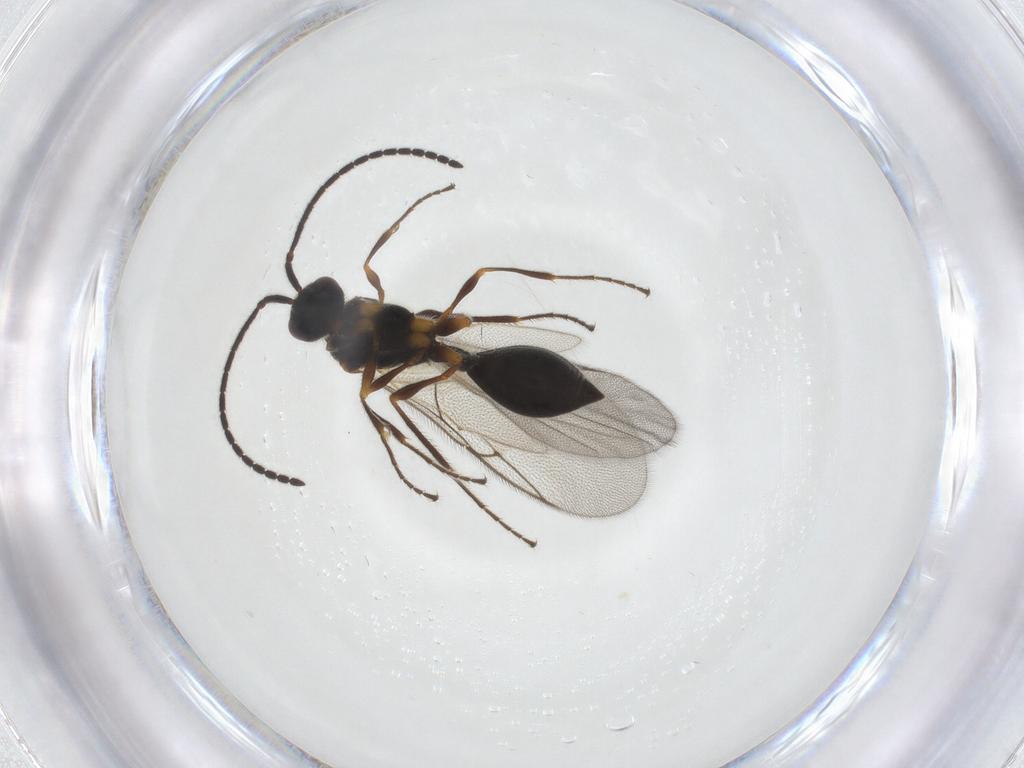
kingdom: Animalia
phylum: Arthropoda
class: Insecta
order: Hymenoptera
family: Diapriidae
